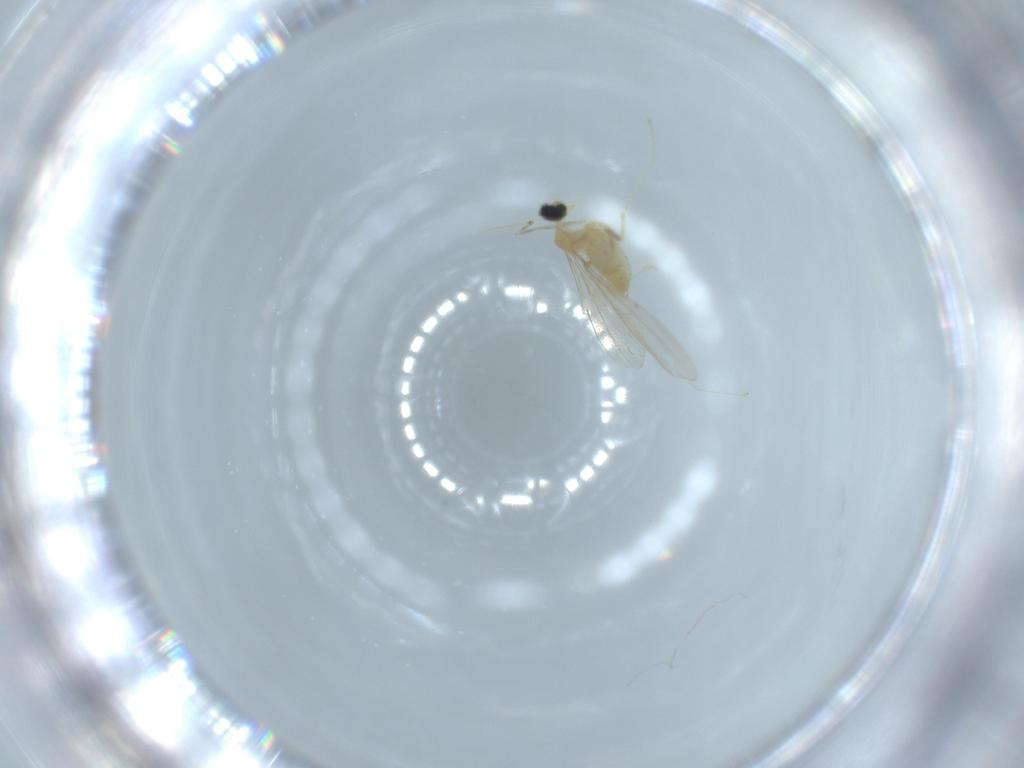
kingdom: Animalia
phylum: Arthropoda
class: Insecta
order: Diptera
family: Cecidomyiidae
